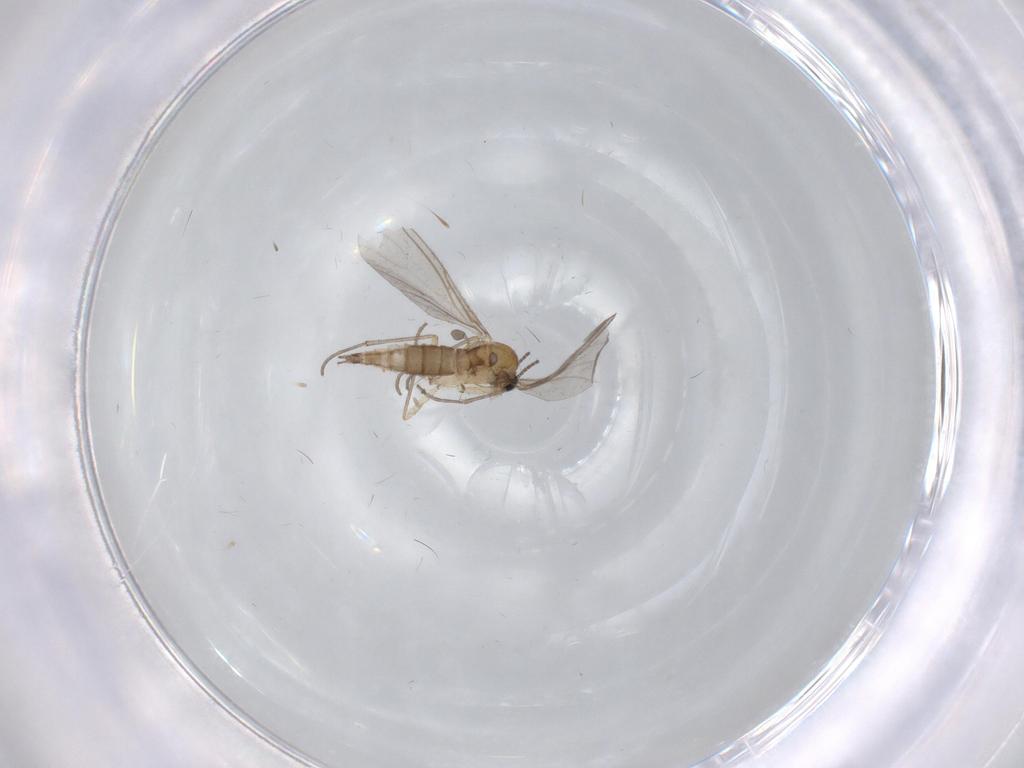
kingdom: Animalia
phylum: Arthropoda
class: Insecta
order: Diptera
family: Sciaridae
